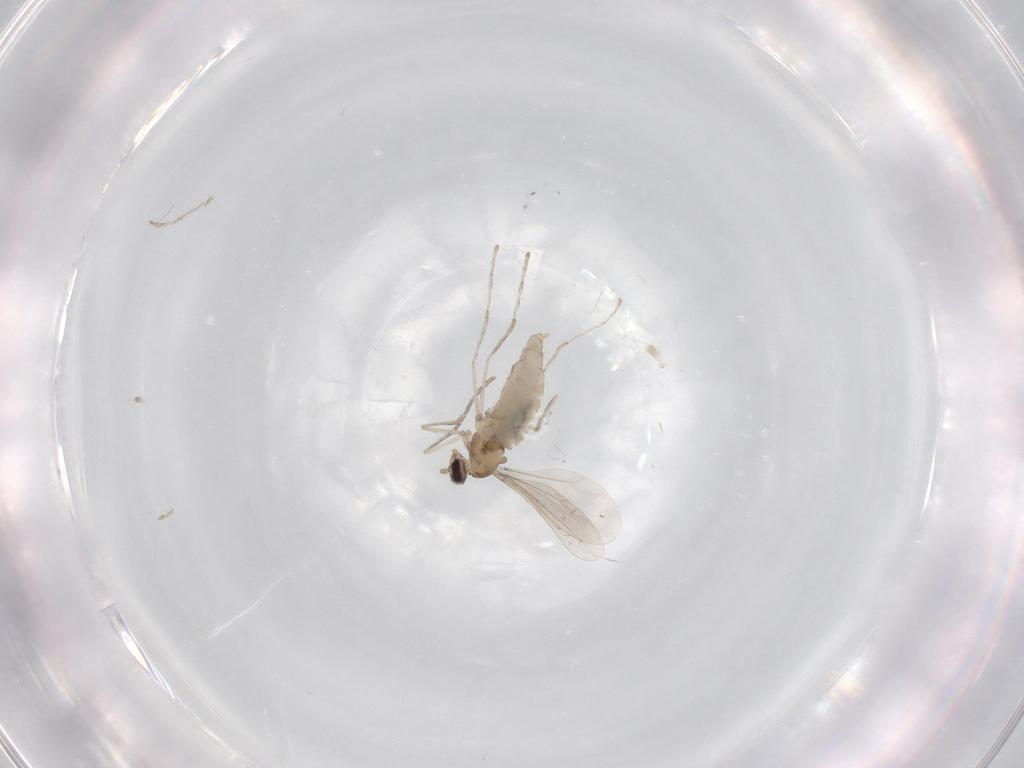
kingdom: Animalia
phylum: Arthropoda
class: Insecta
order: Diptera
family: Cecidomyiidae
